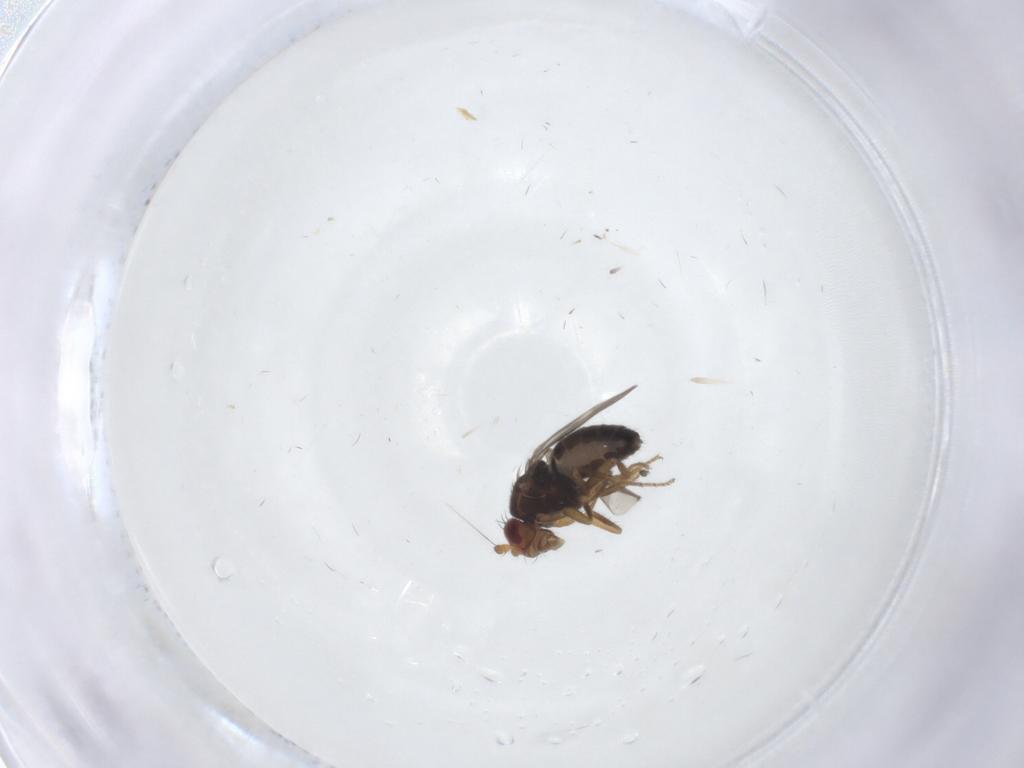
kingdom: Animalia
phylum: Arthropoda
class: Insecta
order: Diptera
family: Sphaeroceridae
